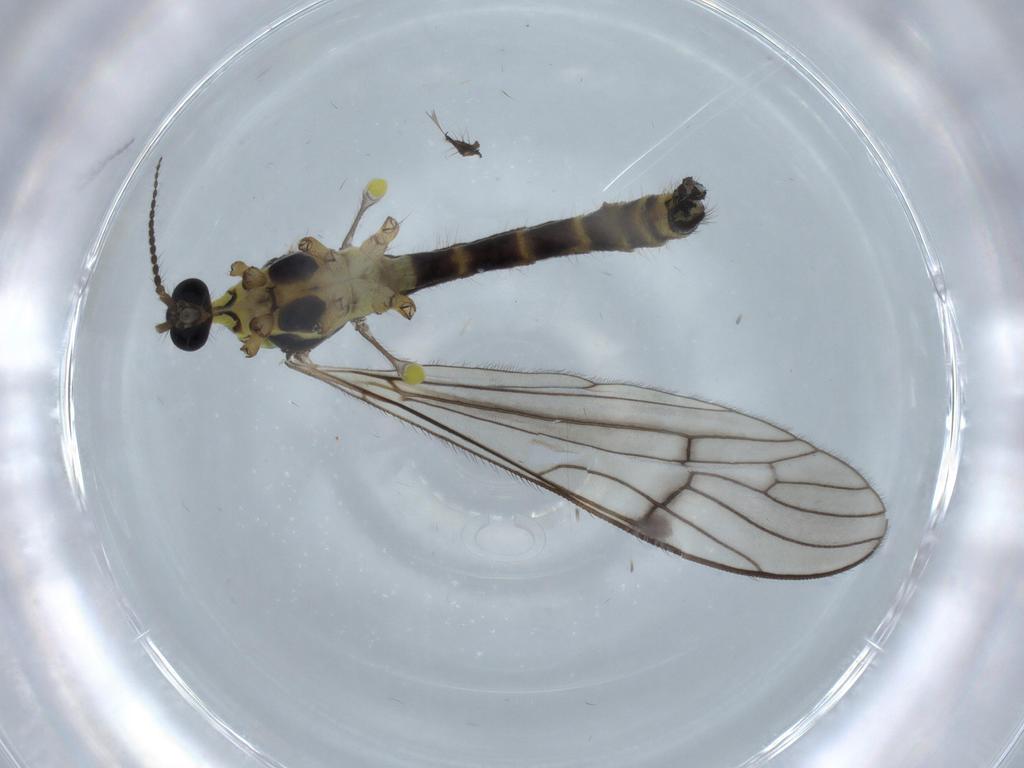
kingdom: Animalia
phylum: Arthropoda
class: Insecta
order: Diptera
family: Limoniidae
